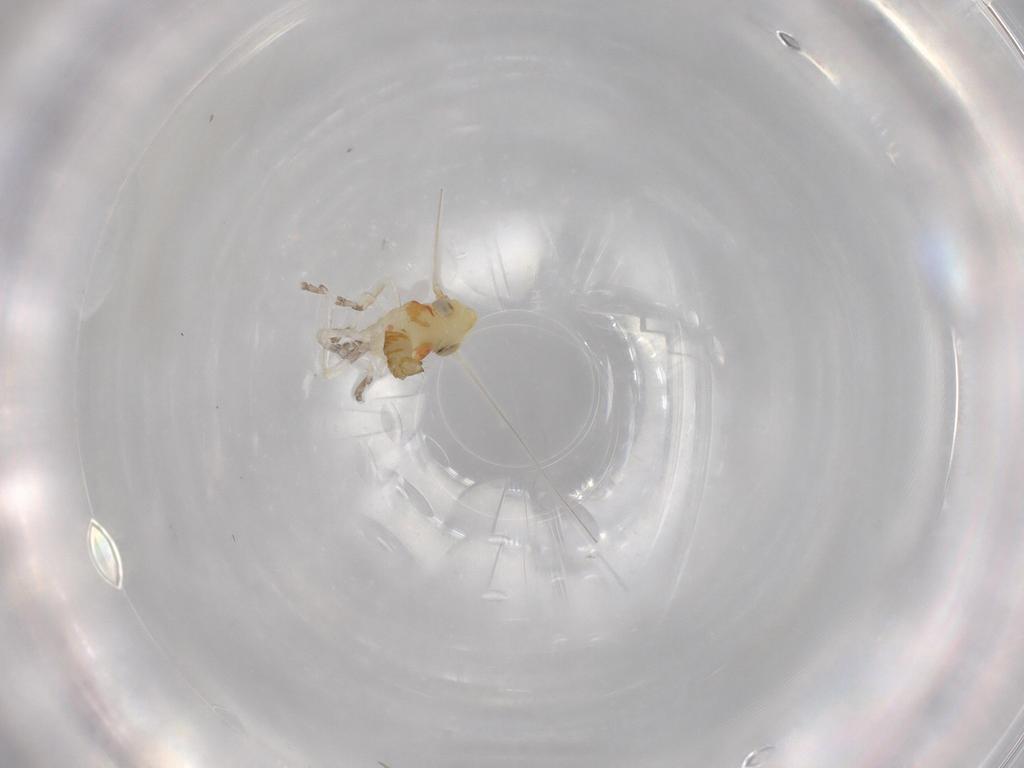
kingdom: Animalia
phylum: Arthropoda
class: Insecta
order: Hemiptera
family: Cicadellidae
